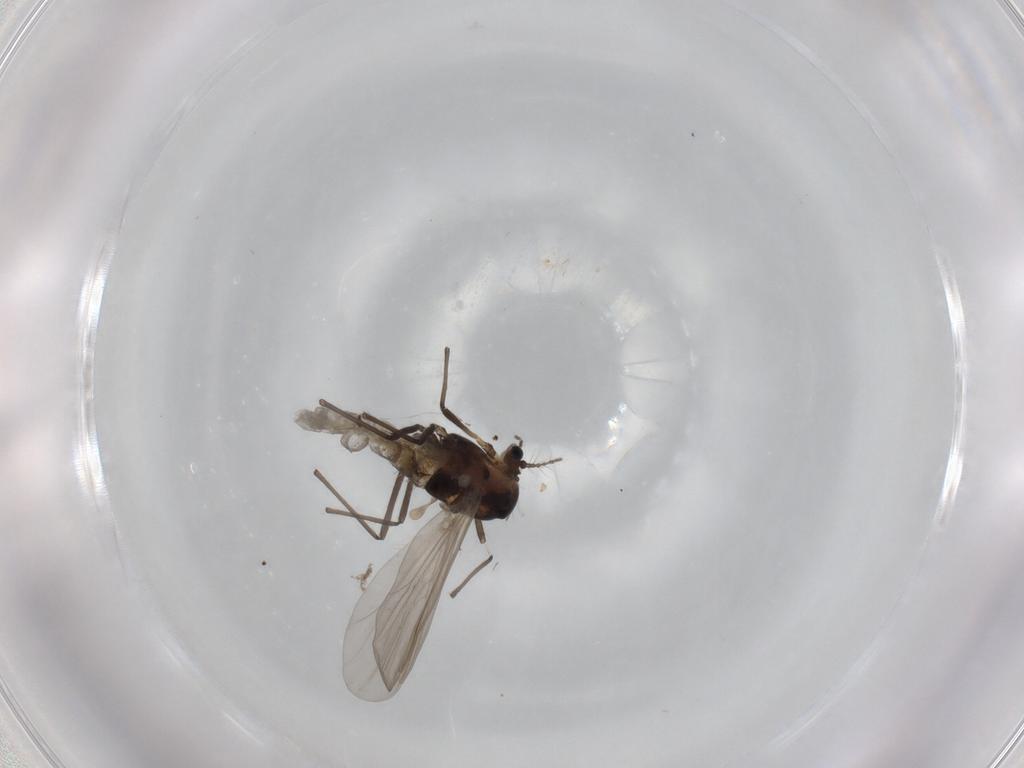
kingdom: Animalia
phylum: Arthropoda
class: Insecta
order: Diptera
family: Chironomidae
